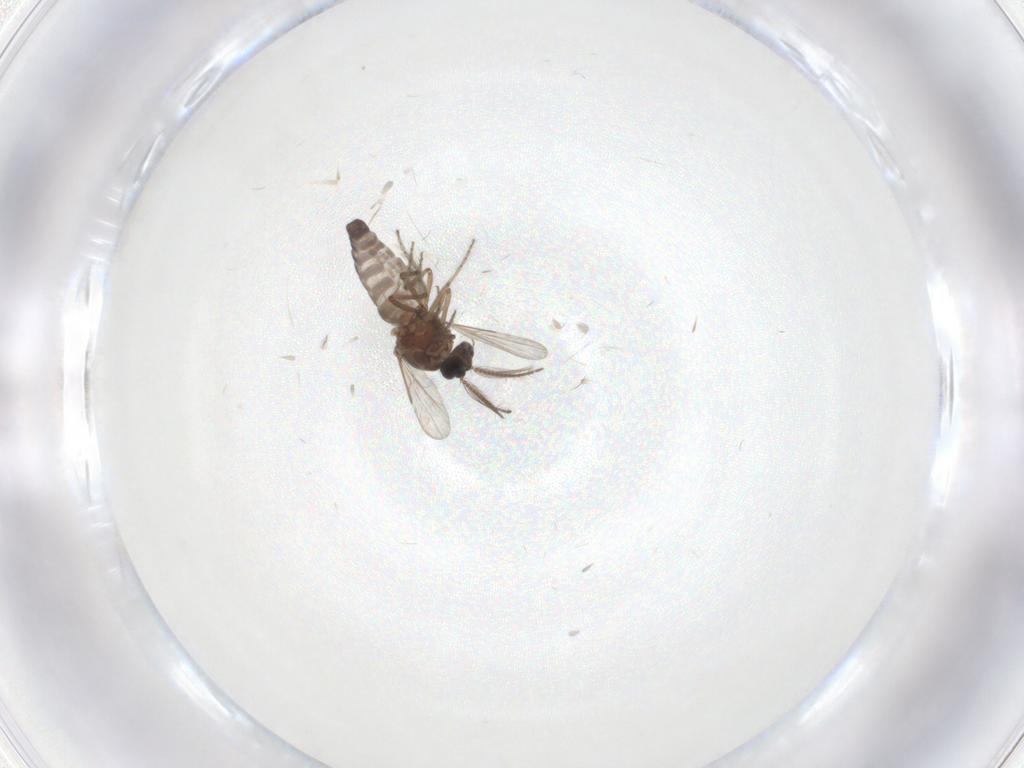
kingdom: Animalia
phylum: Arthropoda
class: Insecta
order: Diptera
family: Ceratopogonidae
